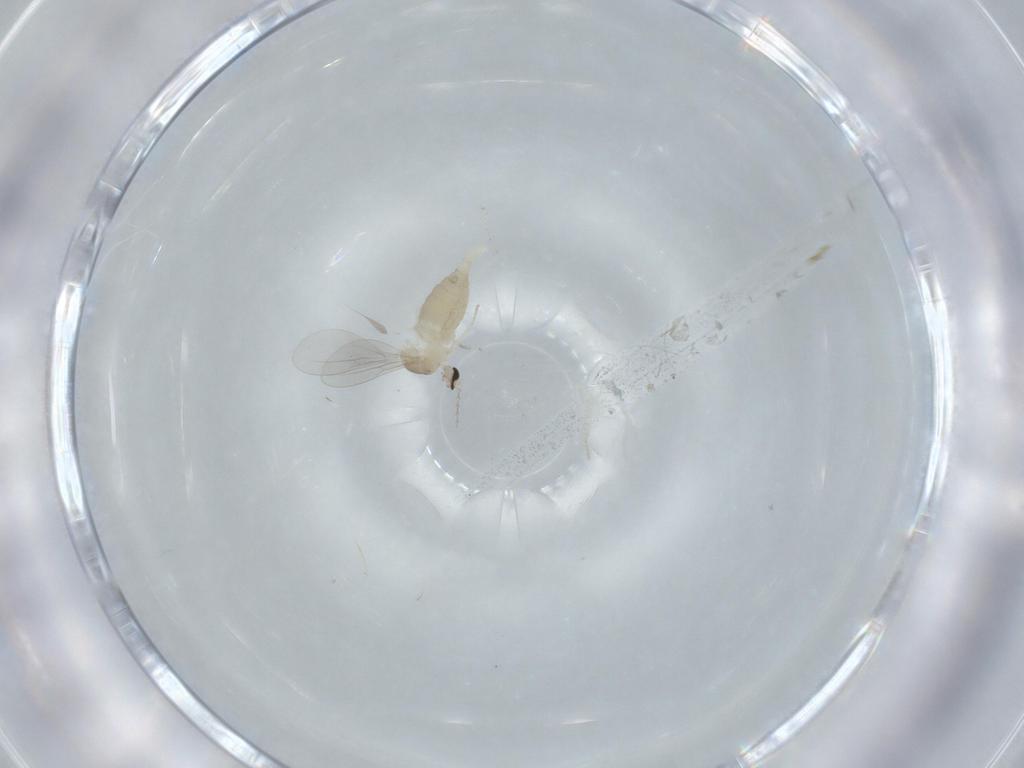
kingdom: Animalia
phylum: Arthropoda
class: Insecta
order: Diptera
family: Cecidomyiidae
